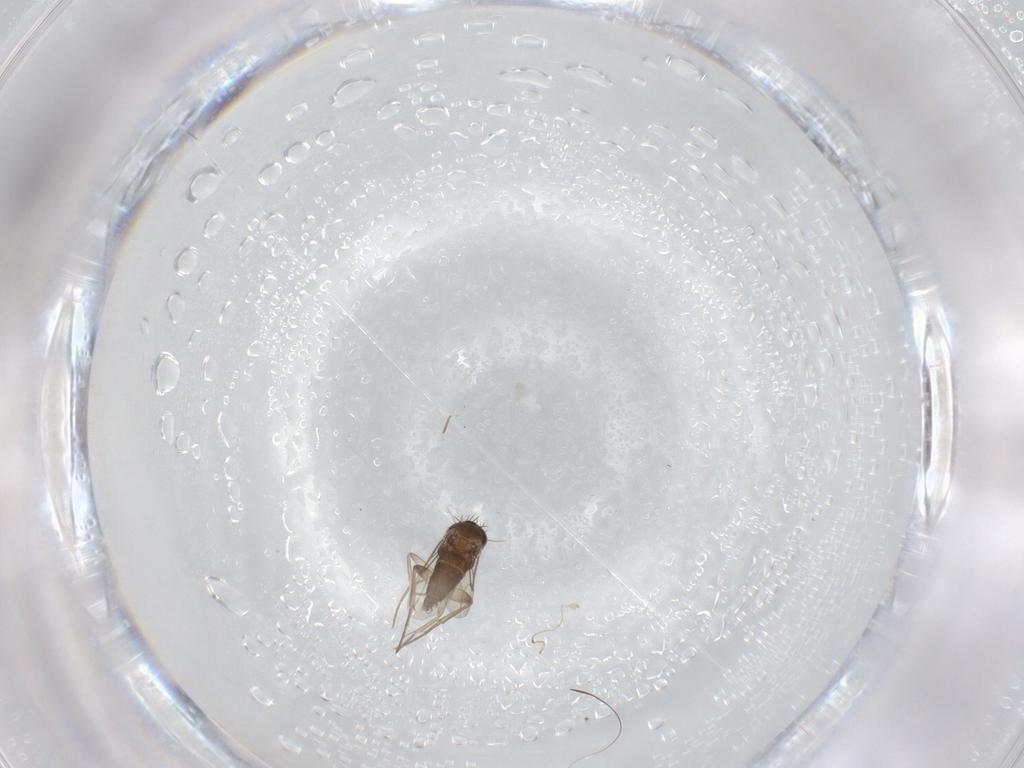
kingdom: Animalia
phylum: Arthropoda
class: Insecta
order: Diptera
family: Phoridae
